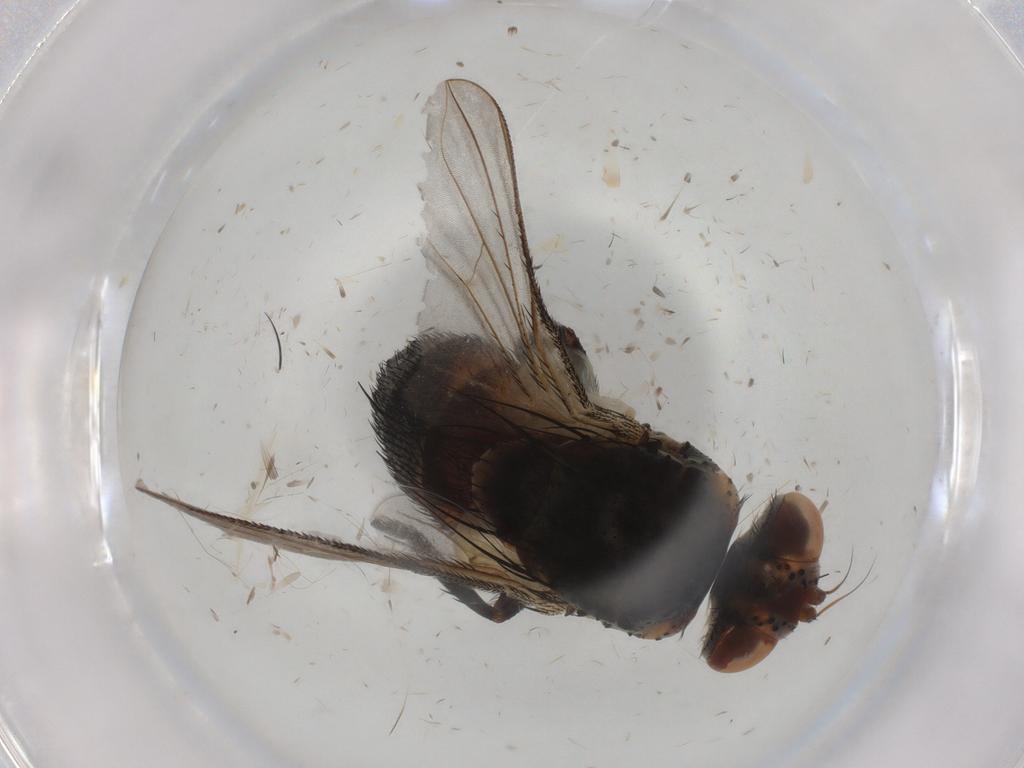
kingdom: Animalia
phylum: Arthropoda
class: Insecta
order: Diptera
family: Tachinidae
